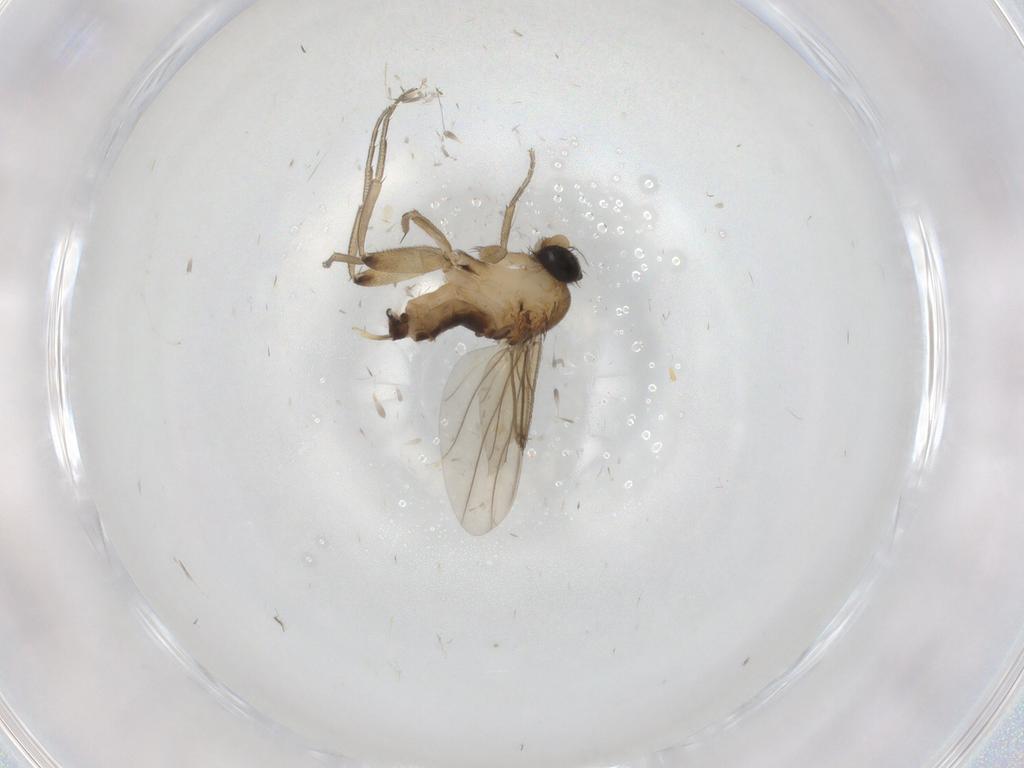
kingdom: Animalia
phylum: Arthropoda
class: Insecta
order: Diptera
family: Phoridae
